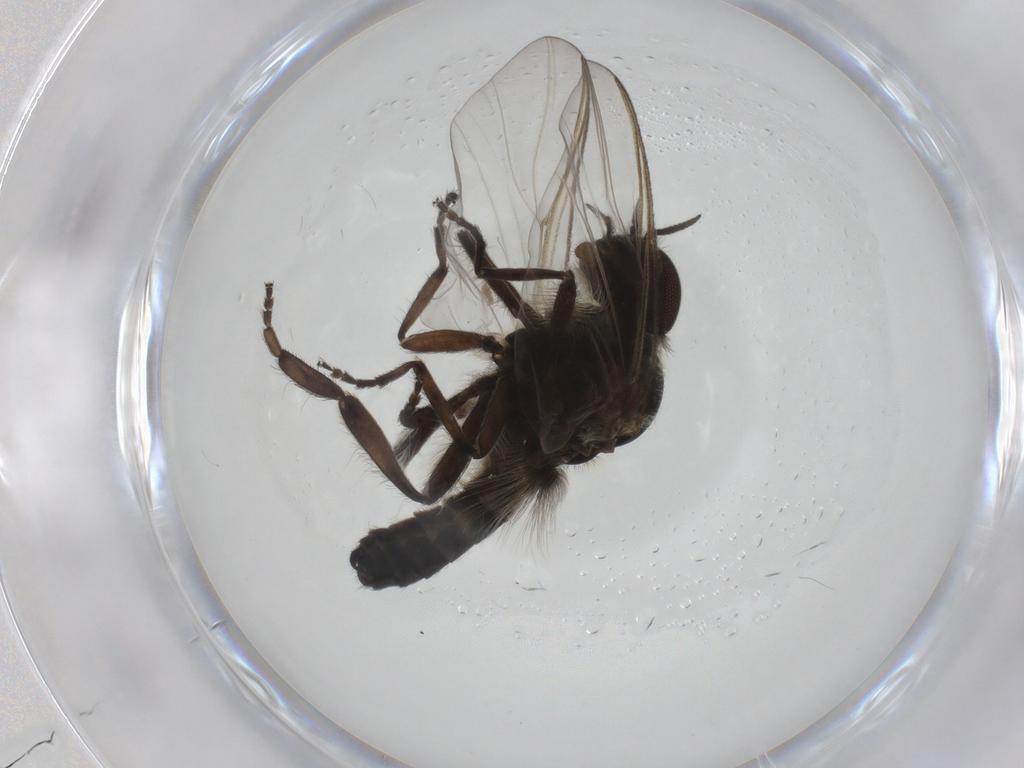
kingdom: Animalia
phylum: Arthropoda
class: Insecta
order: Diptera
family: Simuliidae
